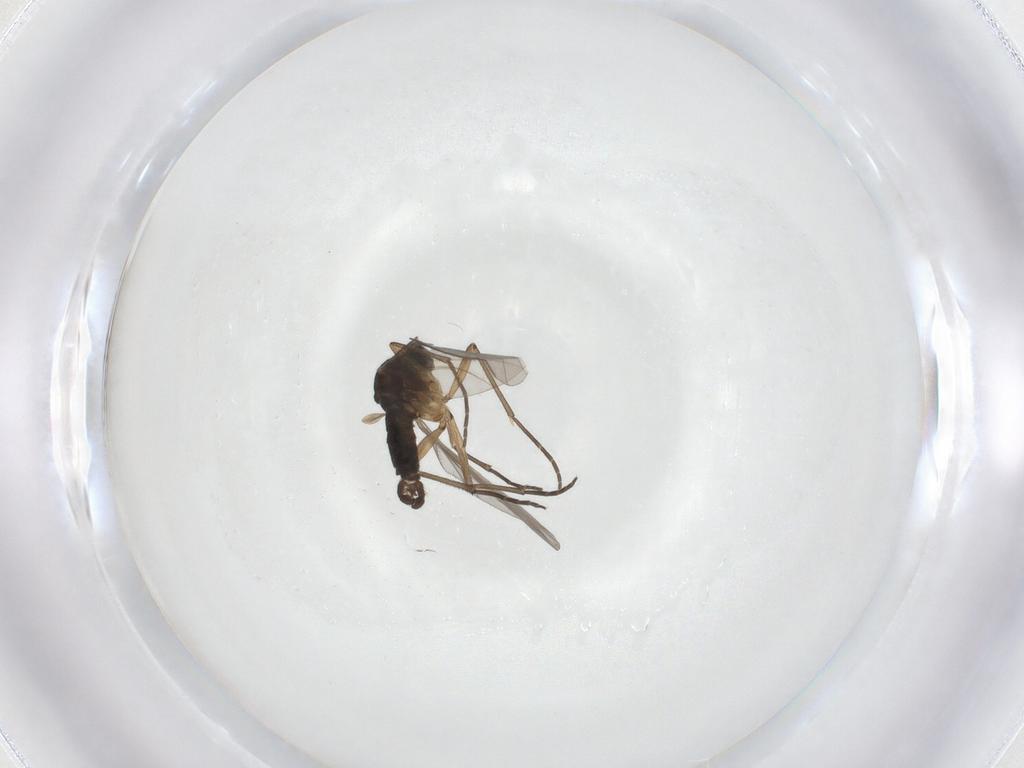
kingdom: Animalia
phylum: Arthropoda
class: Insecta
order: Diptera
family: Sciaridae
